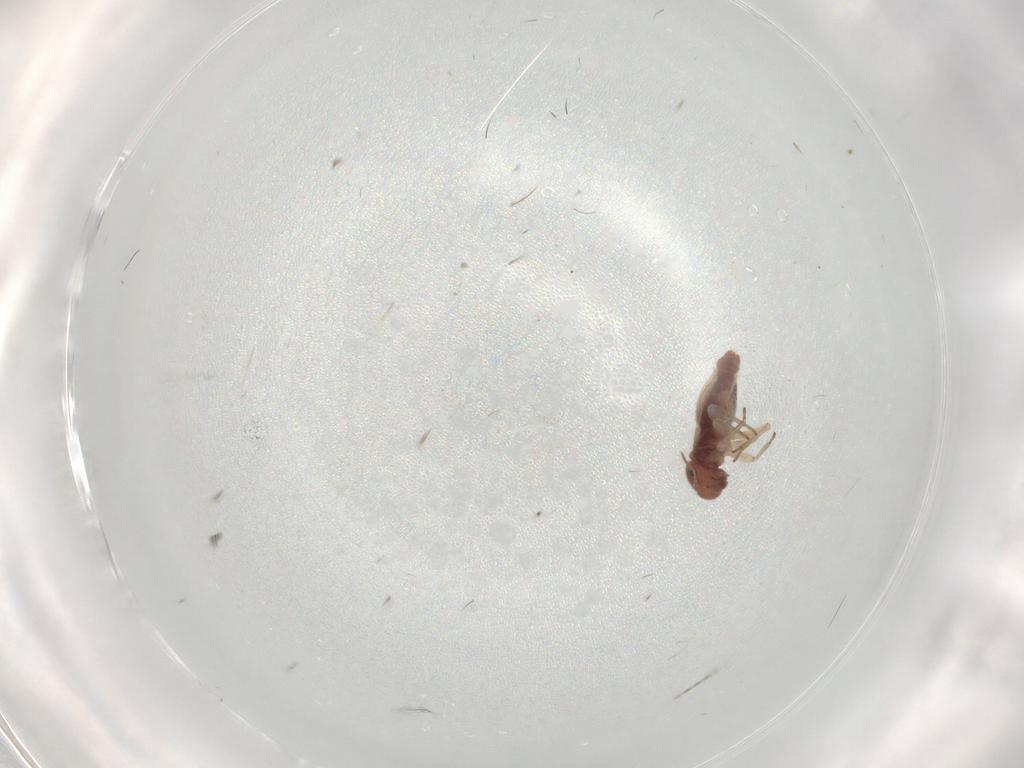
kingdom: Animalia
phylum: Arthropoda
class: Insecta
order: Psocodea
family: Archipsocidae
